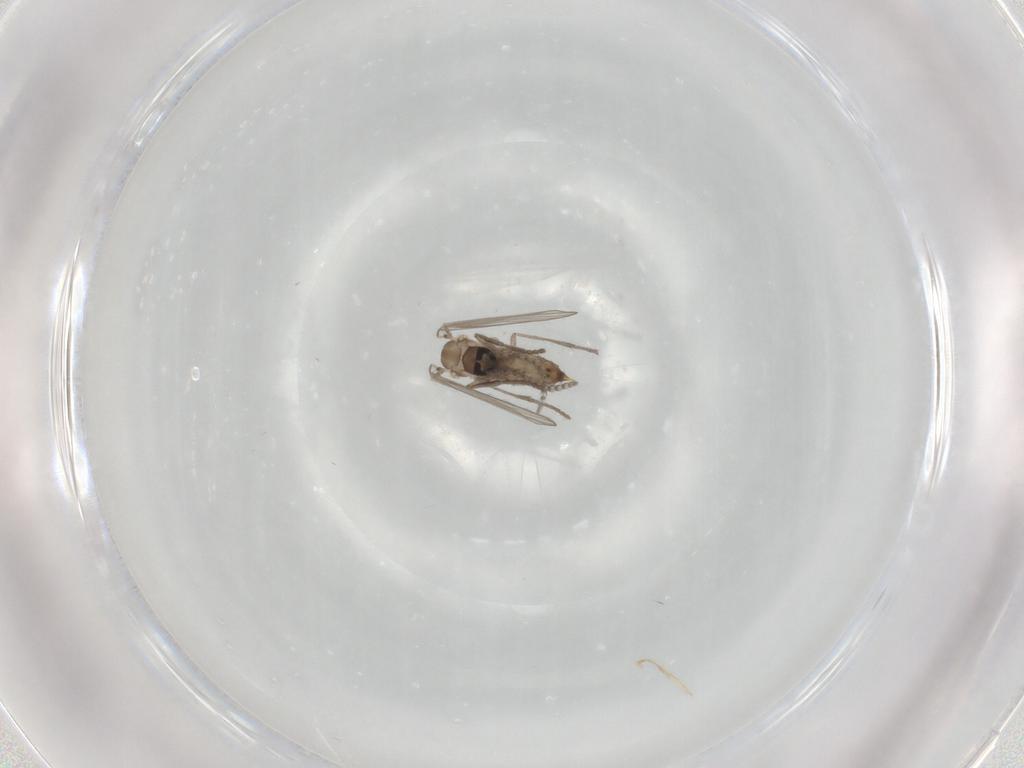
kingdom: Animalia
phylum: Arthropoda
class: Insecta
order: Diptera
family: Psychodidae
